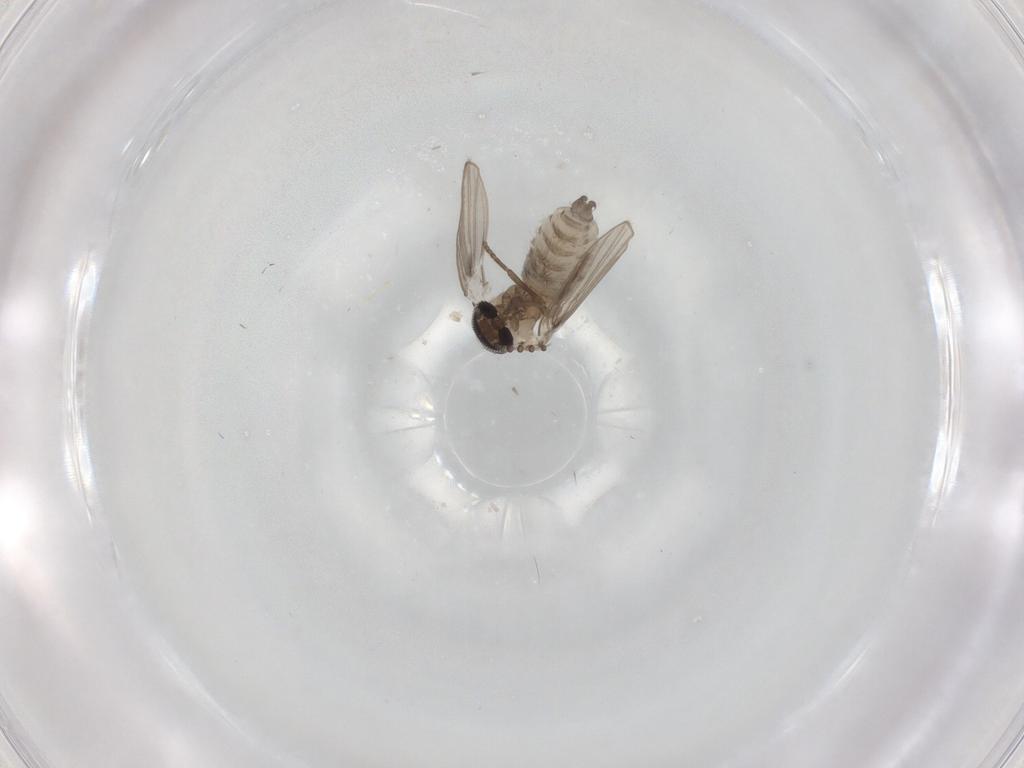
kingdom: Animalia
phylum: Arthropoda
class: Insecta
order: Diptera
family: Psychodidae
